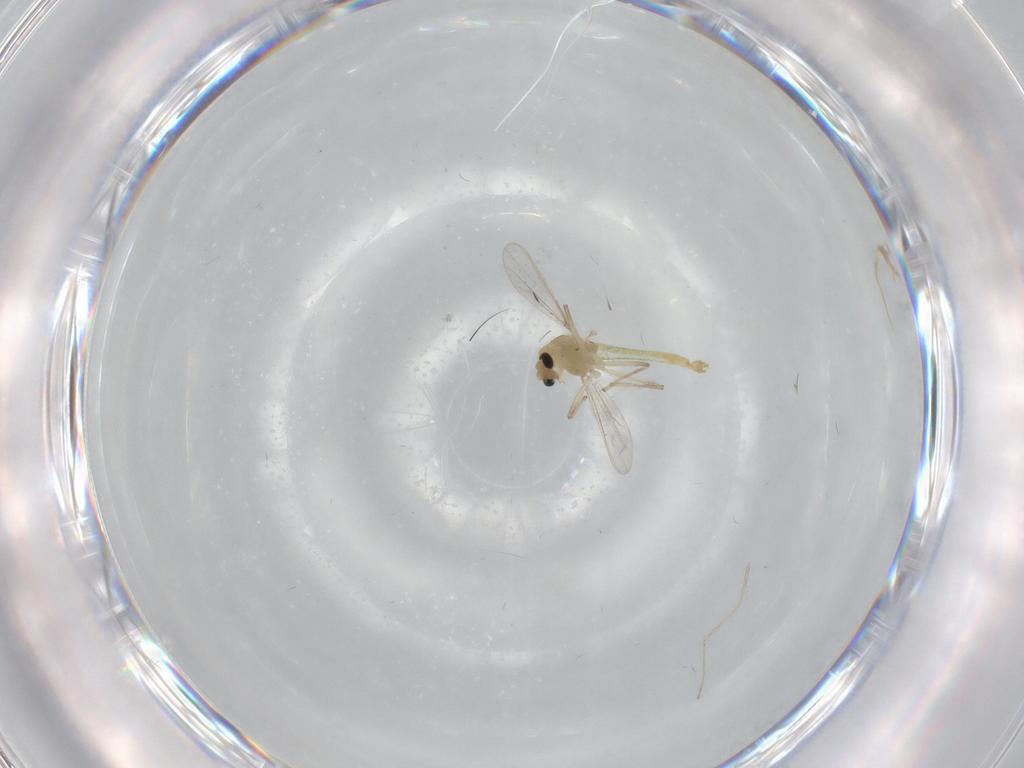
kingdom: Animalia
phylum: Arthropoda
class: Insecta
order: Diptera
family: Chironomidae
